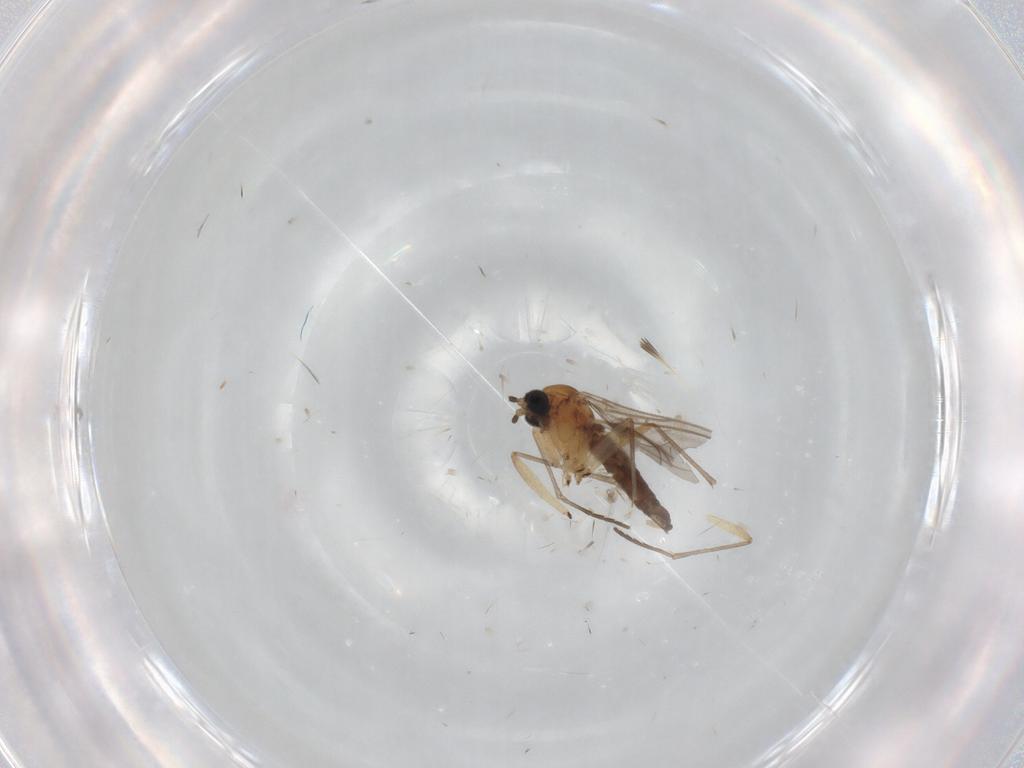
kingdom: Animalia
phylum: Arthropoda
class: Insecta
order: Diptera
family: Sciaridae
